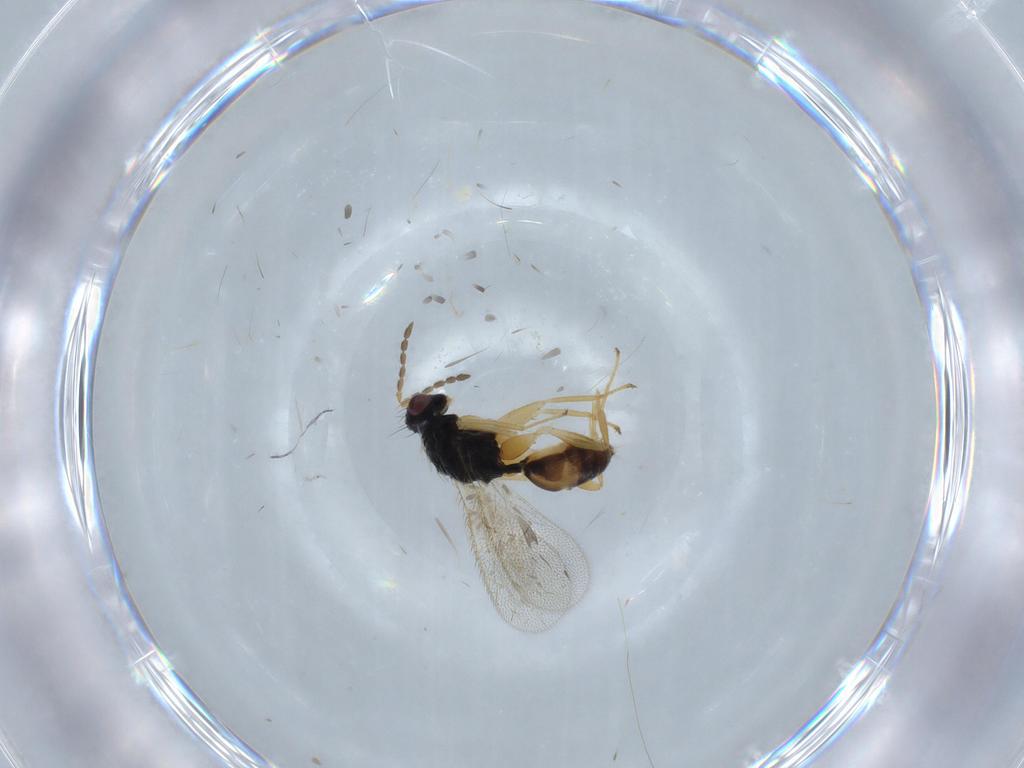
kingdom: Animalia
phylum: Arthropoda
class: Insecta
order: Hymenoptera
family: Eulophidae
